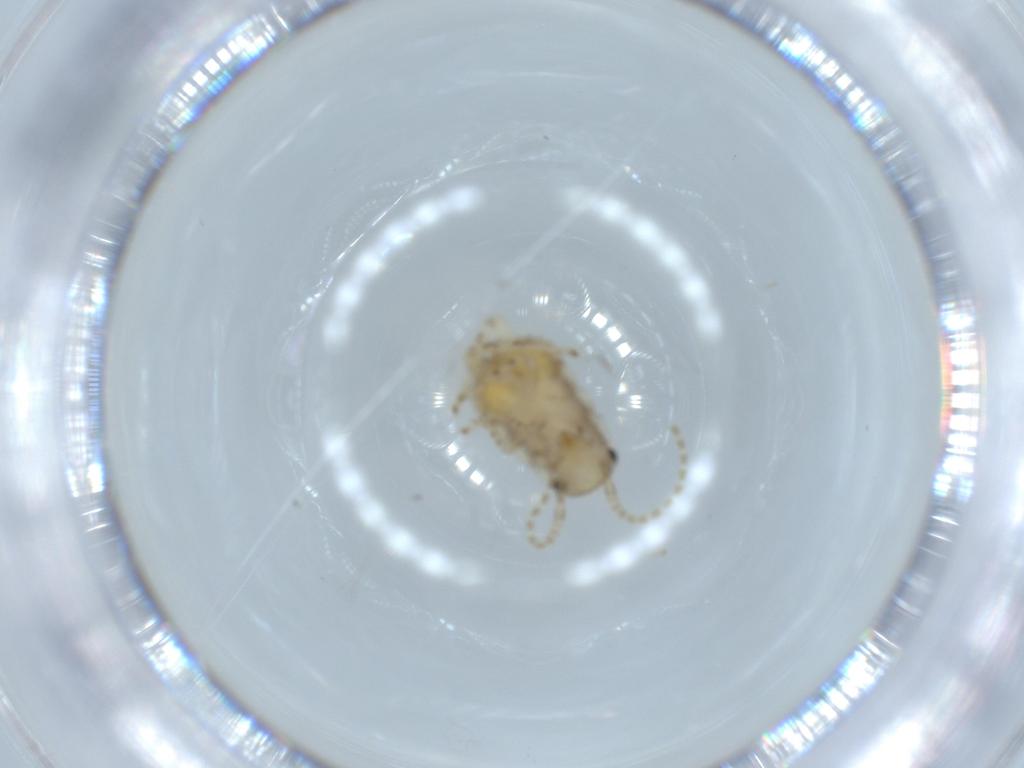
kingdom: Animalia
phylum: Arthropoda
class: Insecta
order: Blattodea
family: Ectobiidae
